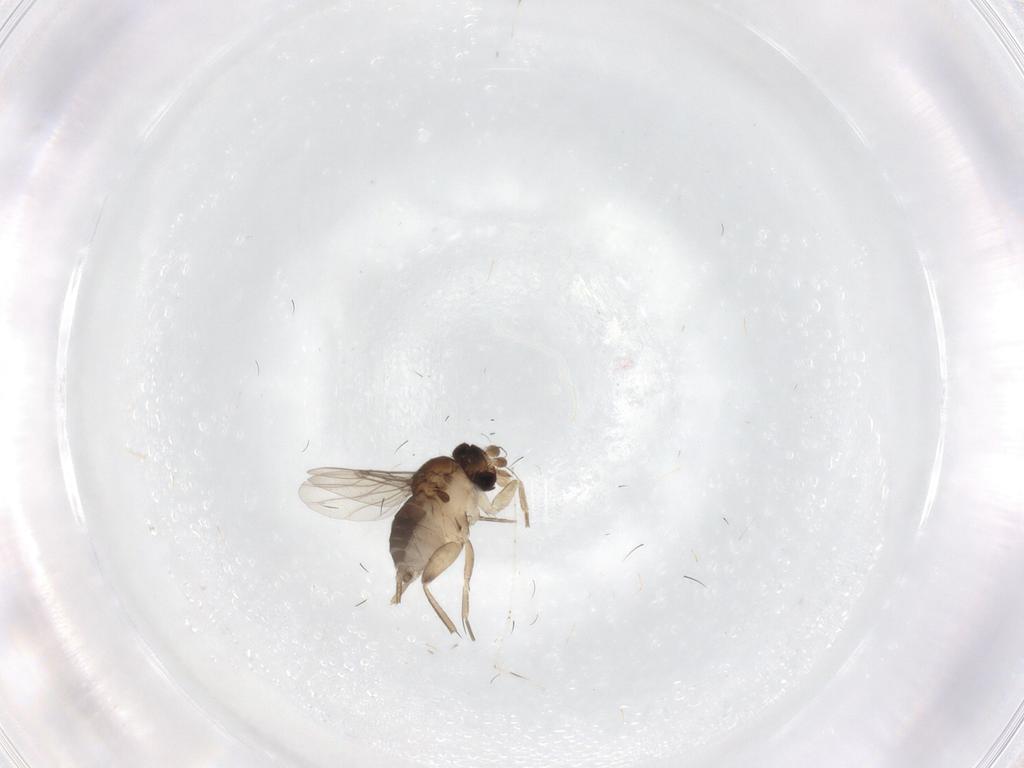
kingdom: Animalia
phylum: Arthropoda
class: Insecta
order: Diptera
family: Phoridae
